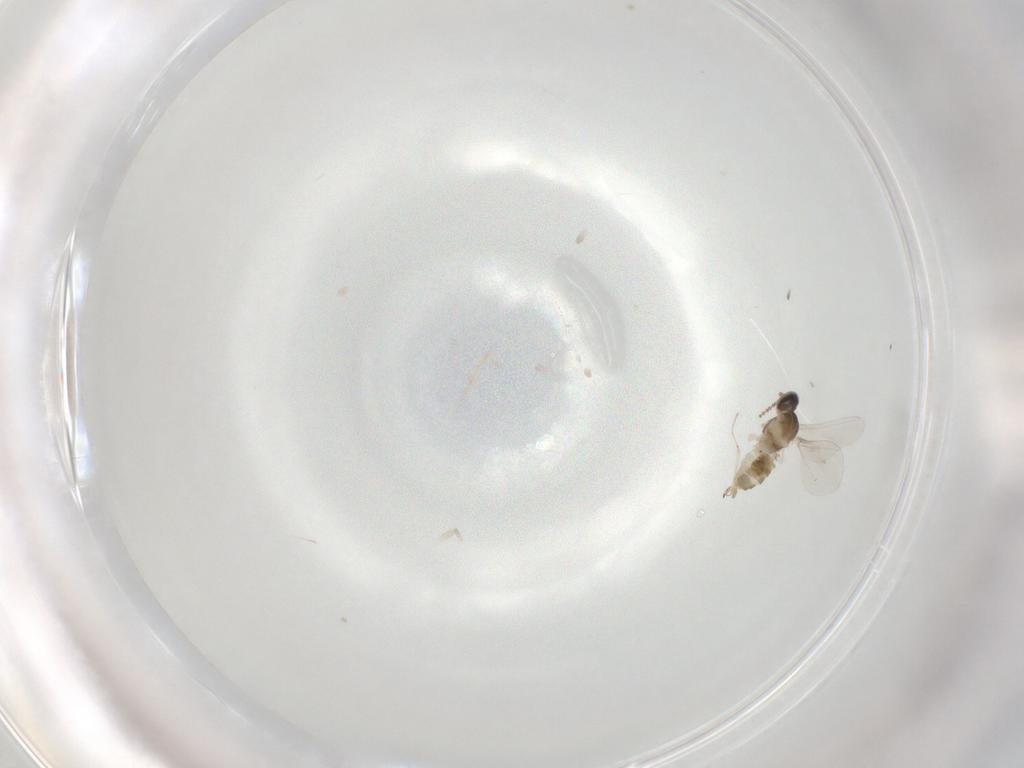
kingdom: Animalia
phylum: Arthropoda
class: Insecta
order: Diptera
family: Cecidomyiidae
